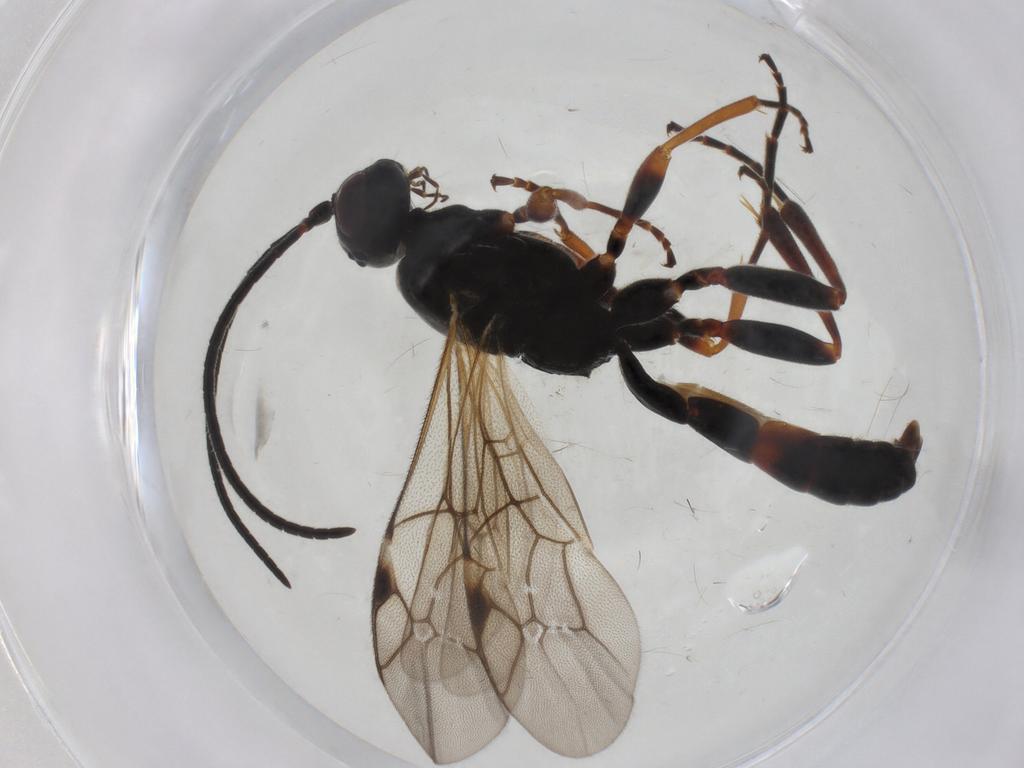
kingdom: Animalia
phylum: Arthropoda
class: Insecta
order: Hymenoptera
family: Ichneumonidae
